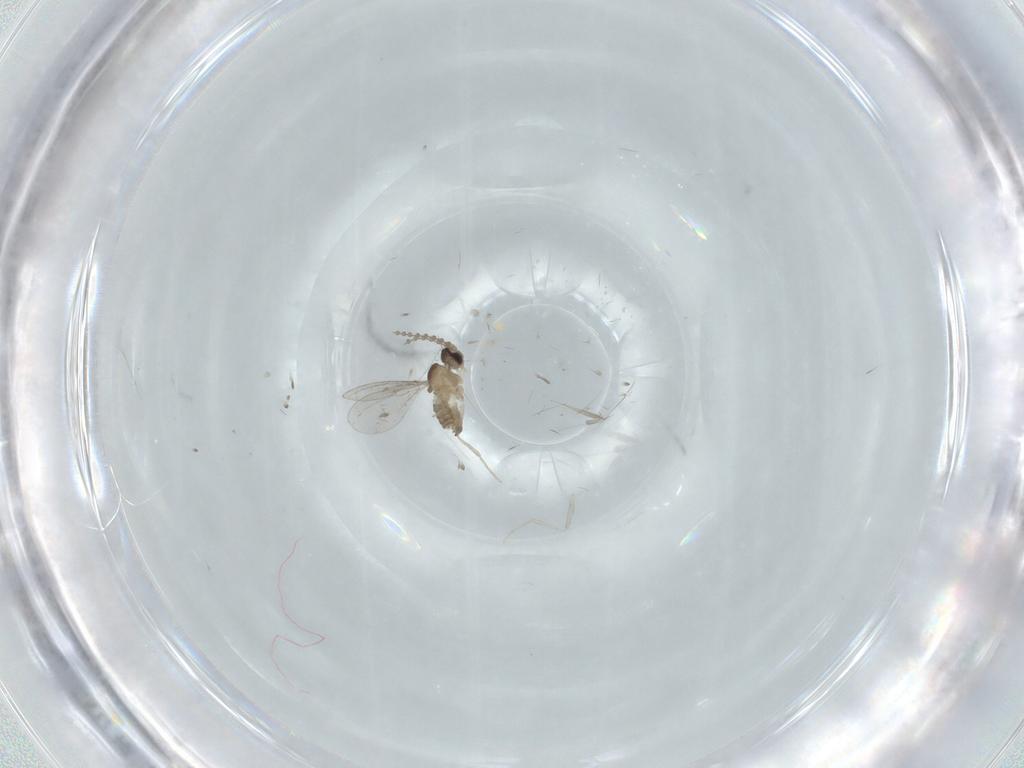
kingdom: Animalia
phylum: Arthropoda
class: Insecta
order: Diptera
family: Cecidomyiidae
